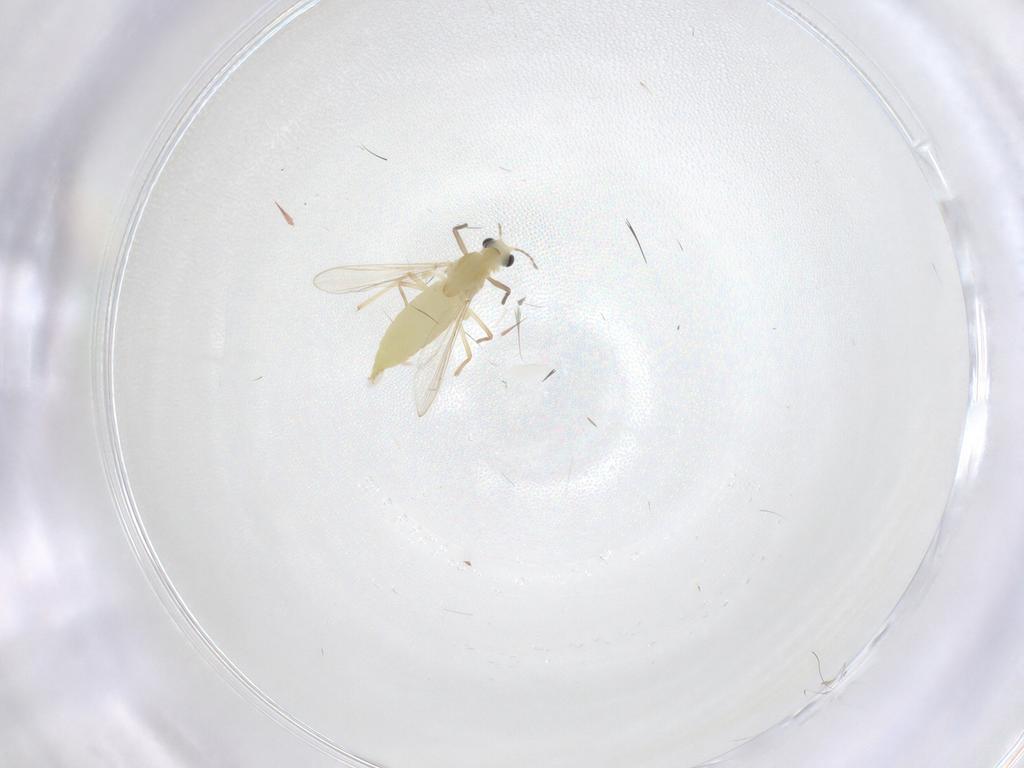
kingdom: Animalia
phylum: Arthropoda
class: Insecta
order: Diptera
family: Chironomidae
